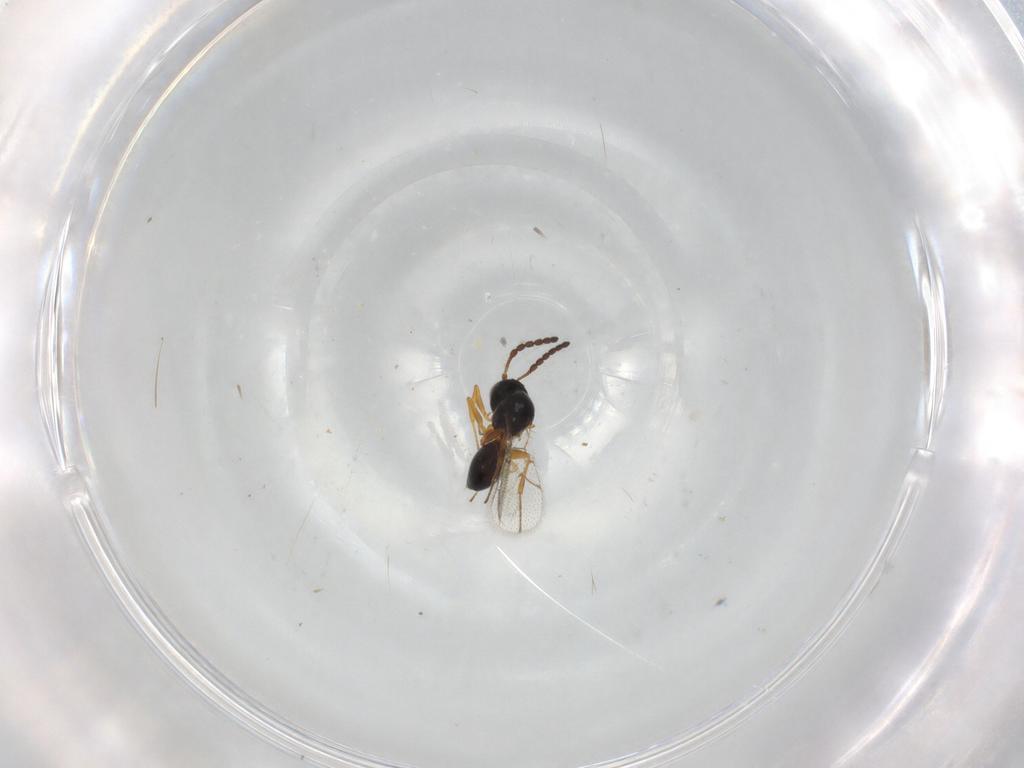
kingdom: Animalia
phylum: Arthropoda
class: Insecta
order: Hymenoptera
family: Figitidae
